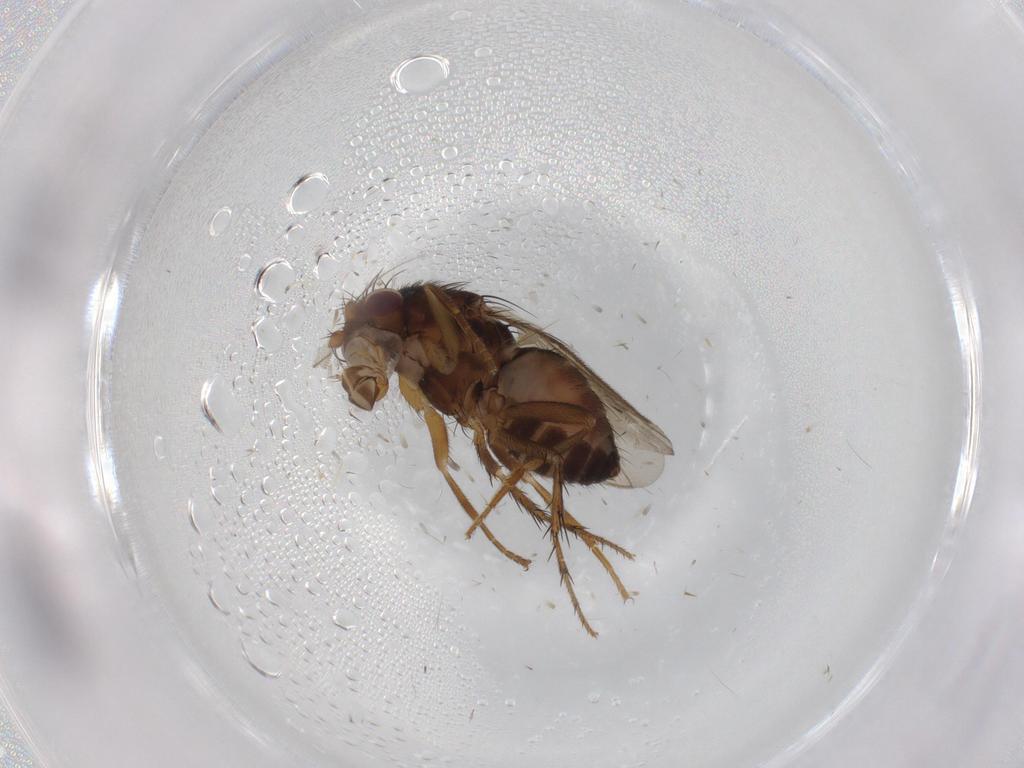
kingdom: Animalia
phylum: Arthropoda
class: Insecta
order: Diptera
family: Sphaeroceridae
